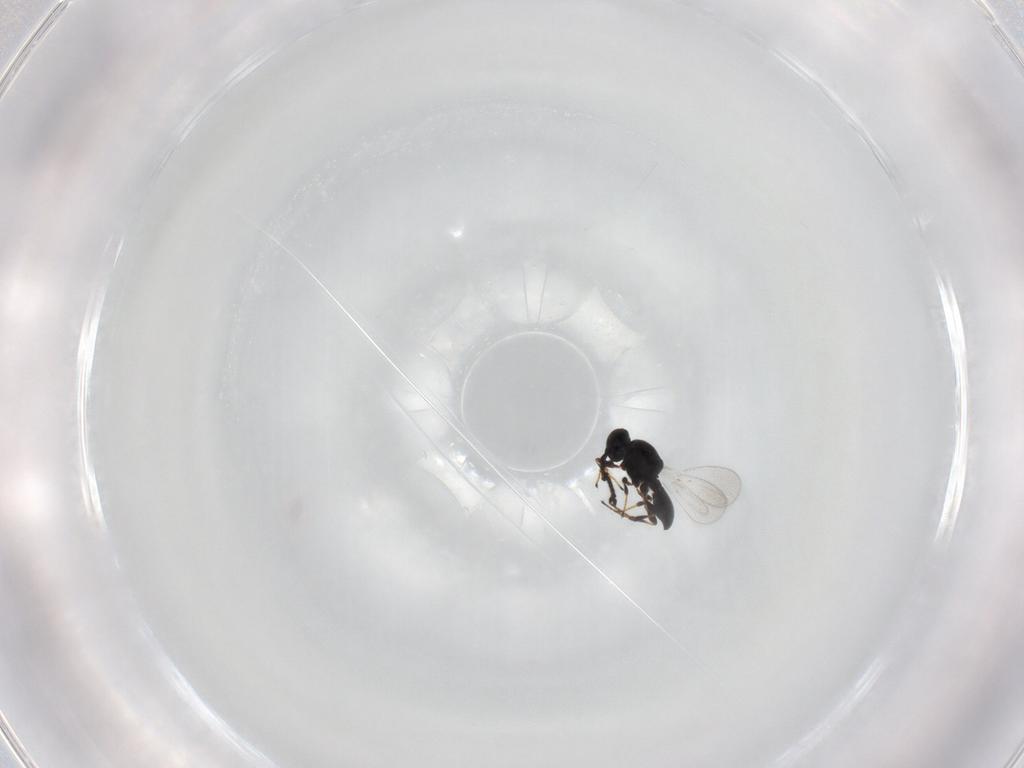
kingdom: Animalia
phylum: Arthropoda
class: Insecta
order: Hymenoptera
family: Platygastridae
